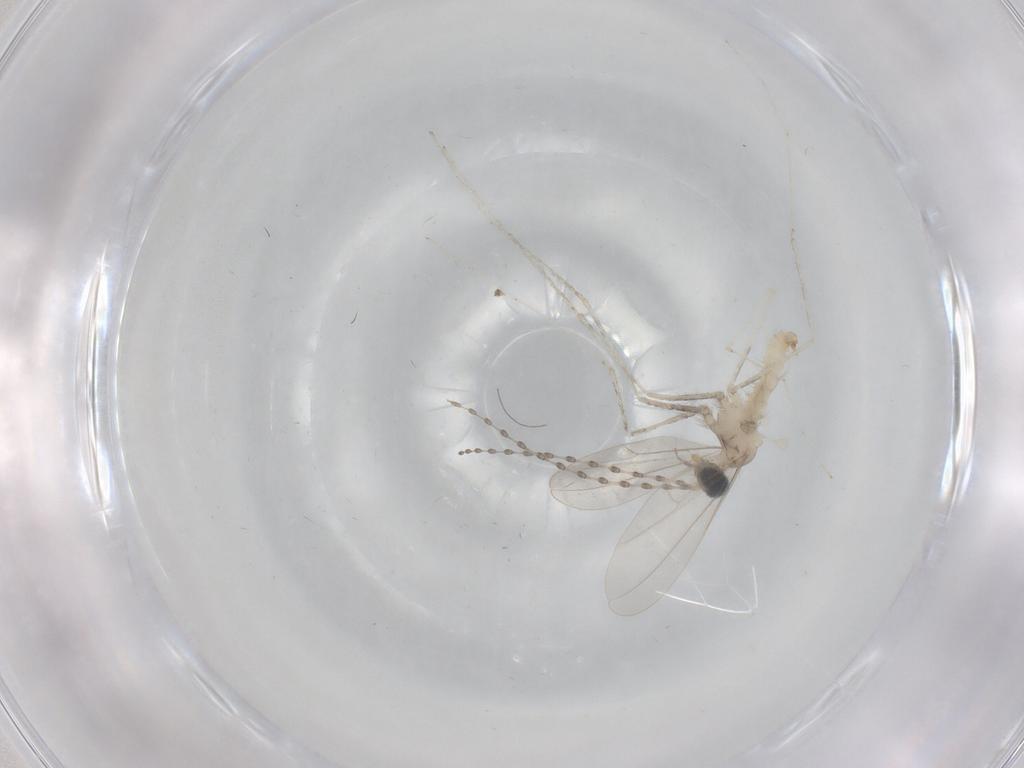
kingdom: Animalia
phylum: Arthropoda
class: Insecta
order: Diptera
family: Cecidomyiidae
